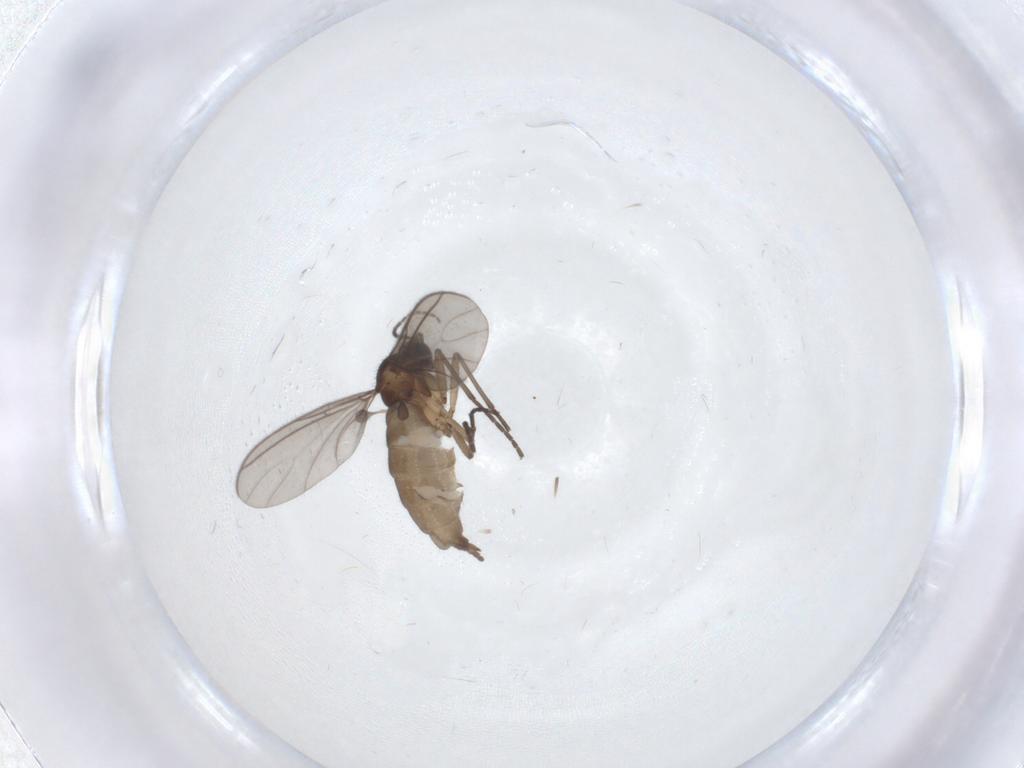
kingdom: Animalia
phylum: Arthropoda
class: Insecta
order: Diptera
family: Sciaridae
